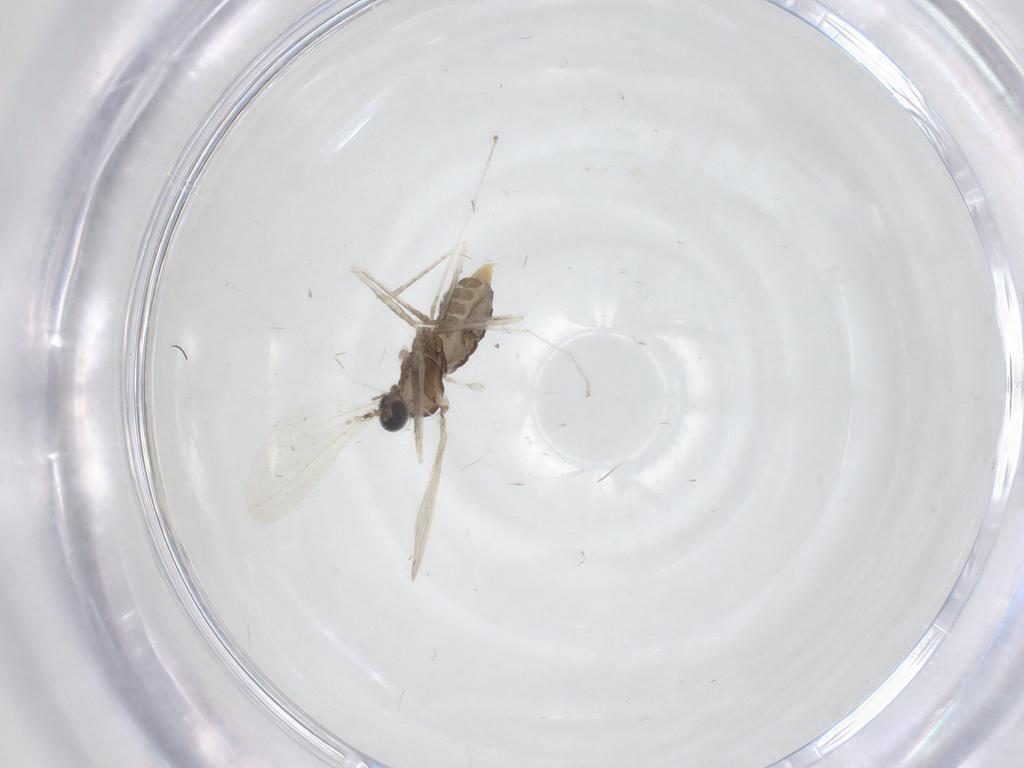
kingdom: Animalia
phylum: Arthropoda
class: Insecta
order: Diptera
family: Cecidomyiidae
